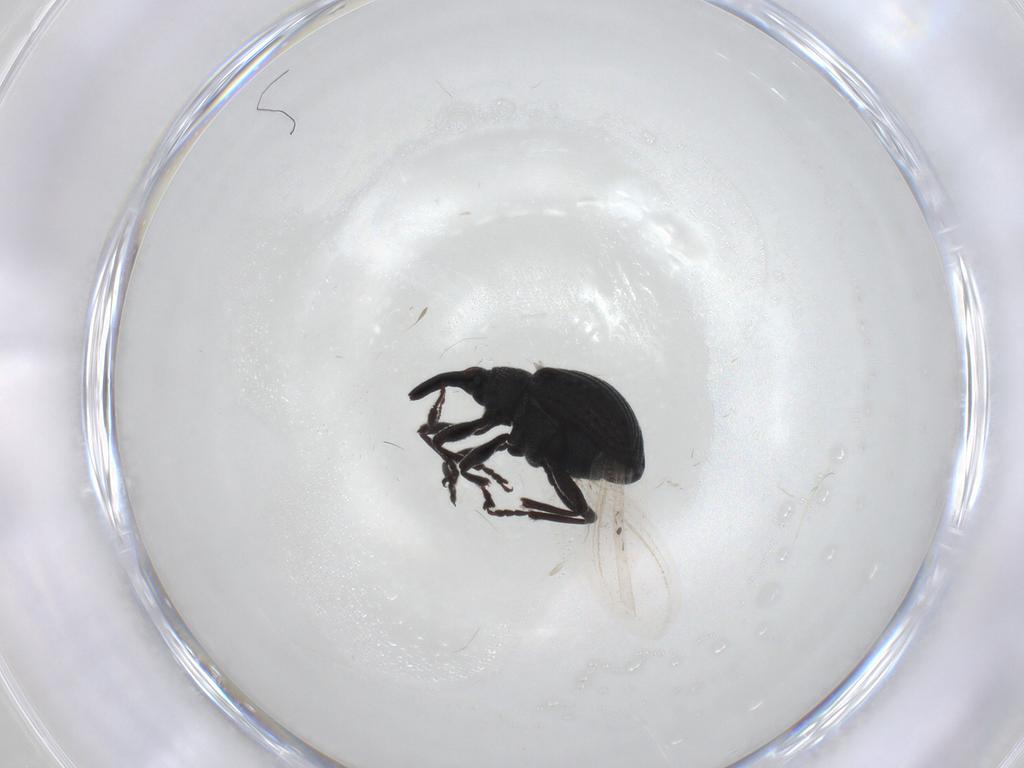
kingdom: Animalia
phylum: Arthropoda
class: Insecta
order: Coleoptera
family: Brentidae
